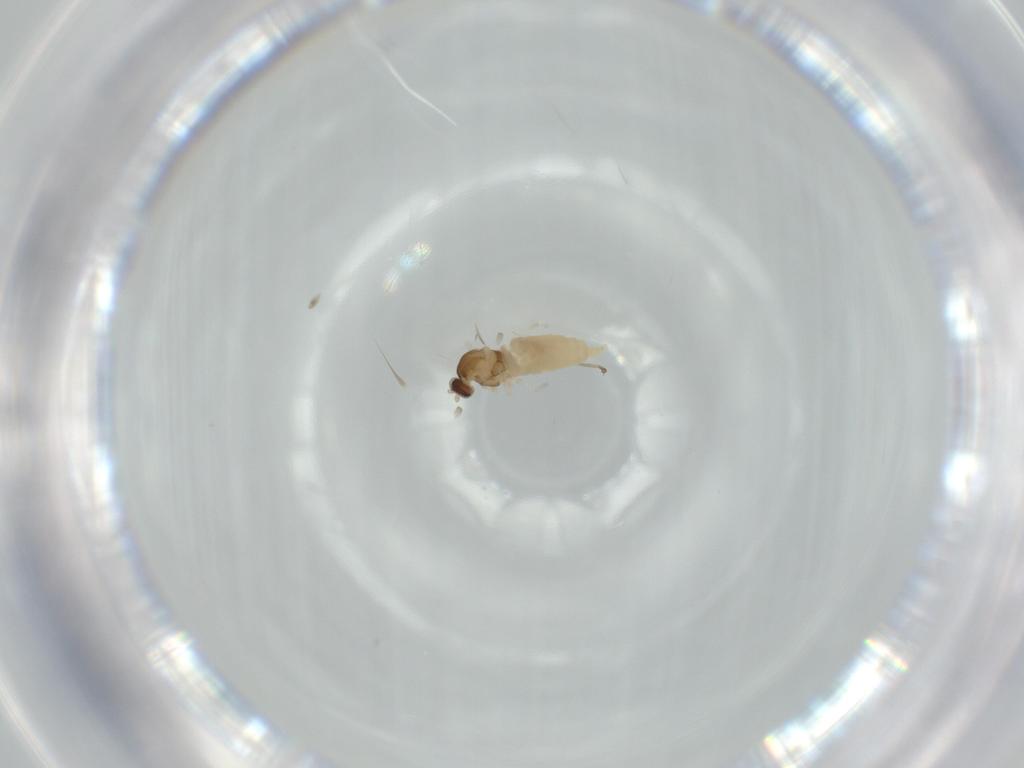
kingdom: Animalia
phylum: Arthropoda
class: Insecta
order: Diptera
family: Cecidomyiidae
